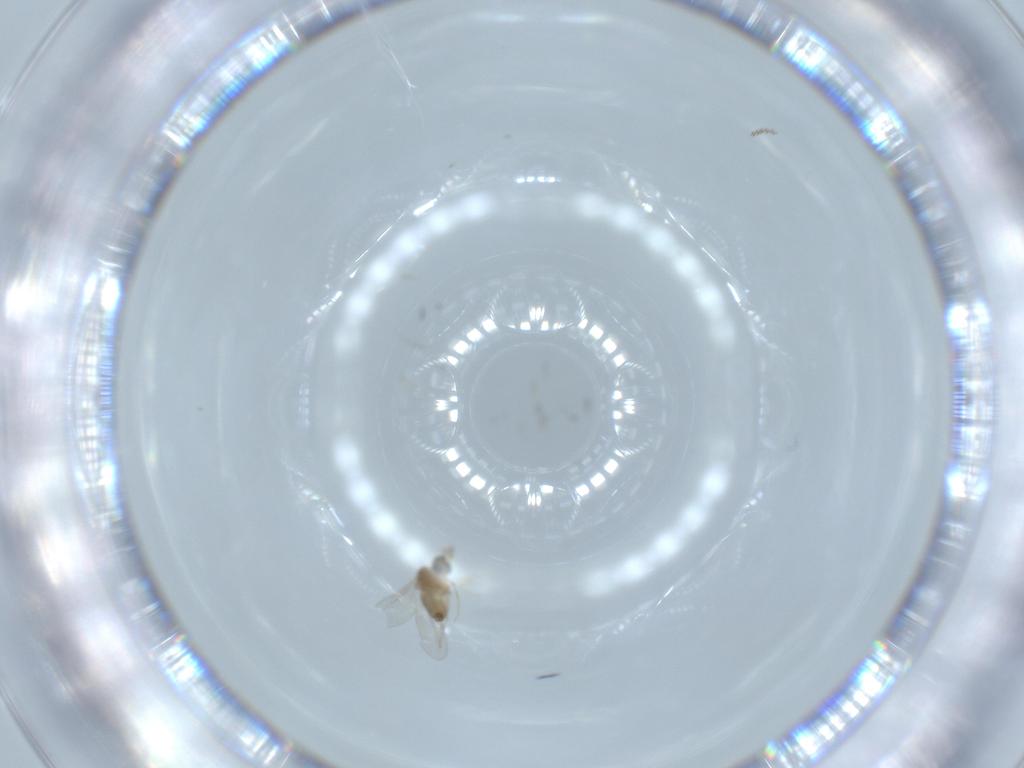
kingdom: Animalia
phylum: Arthropoda
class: Insecta
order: Diptera
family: Cecidomyiidae
